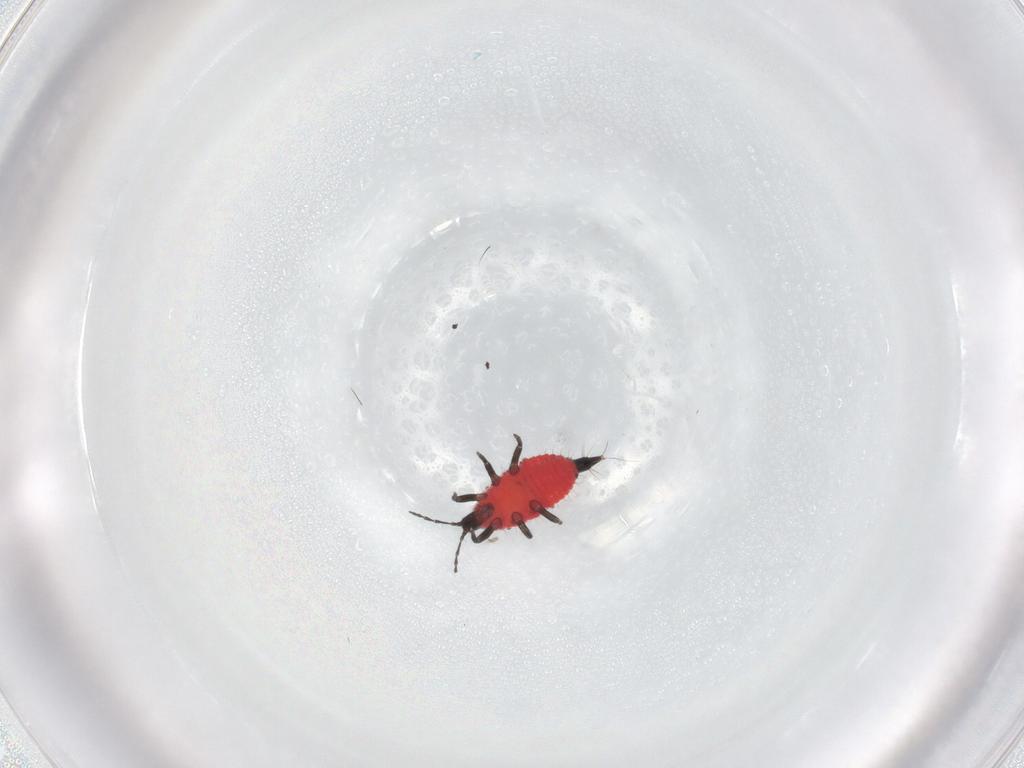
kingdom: Animalia
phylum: Arthropoda
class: Insecta
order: Thysanoptera
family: Phlaeothripidae
